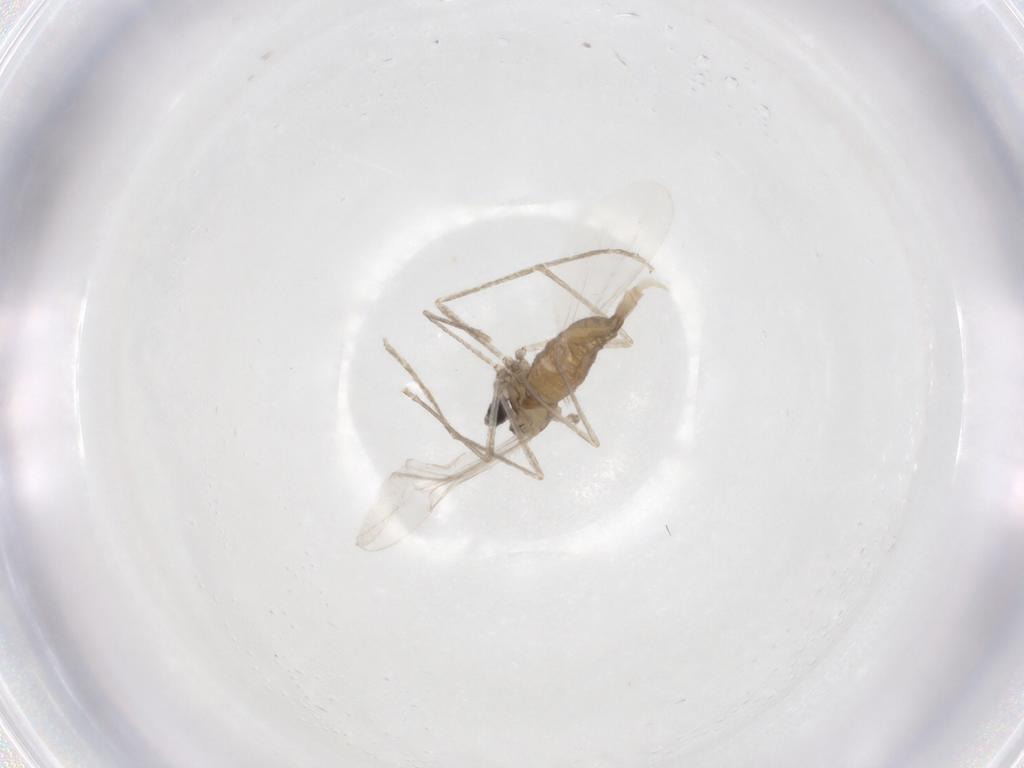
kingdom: Animalia
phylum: Arthropoda
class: Insecta
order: Diptera
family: Cecidomyiidae
